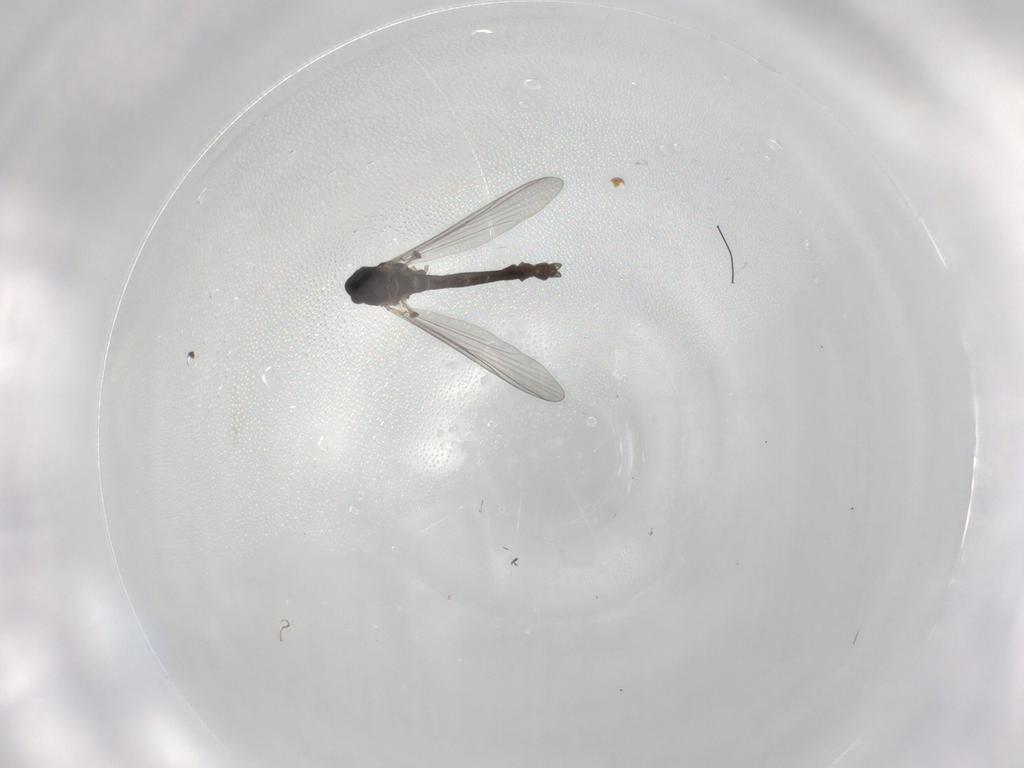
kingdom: Animalia
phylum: Arthropoda
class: Insecta
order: Diptera
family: Chironomidae
